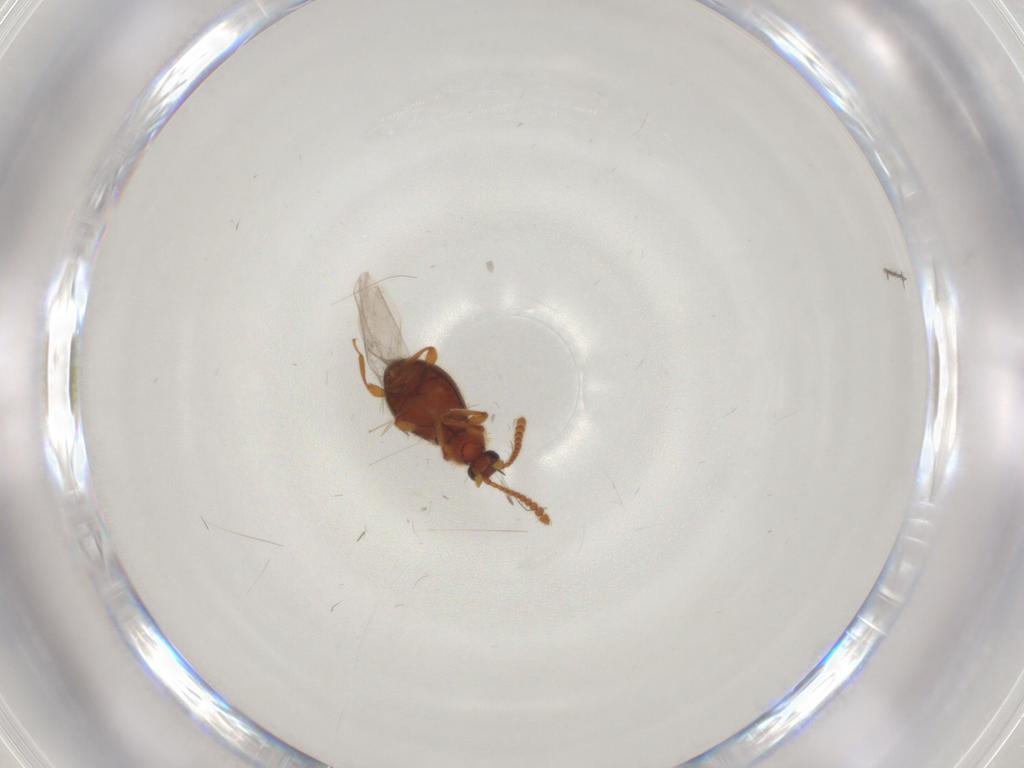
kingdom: Animalia
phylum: Arthropoda
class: Insecta
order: Coleoptera
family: Staphylinidae
